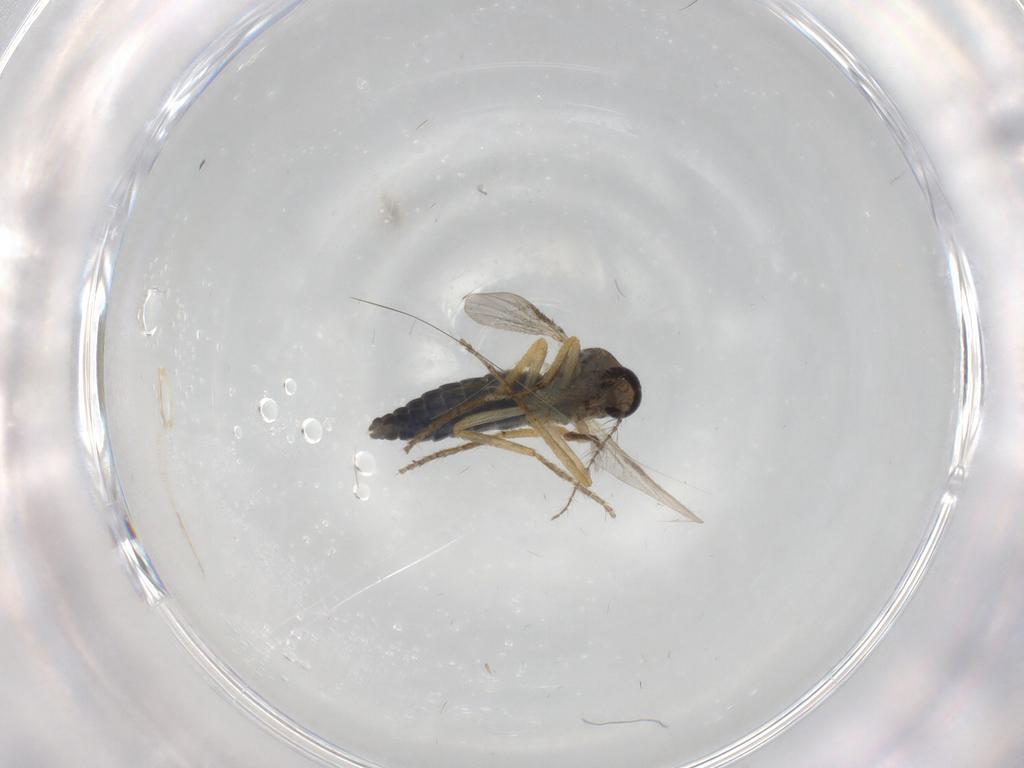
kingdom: Animalia
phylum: Arthropoda
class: Insecta
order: Diptera
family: Ceratopogonidae
